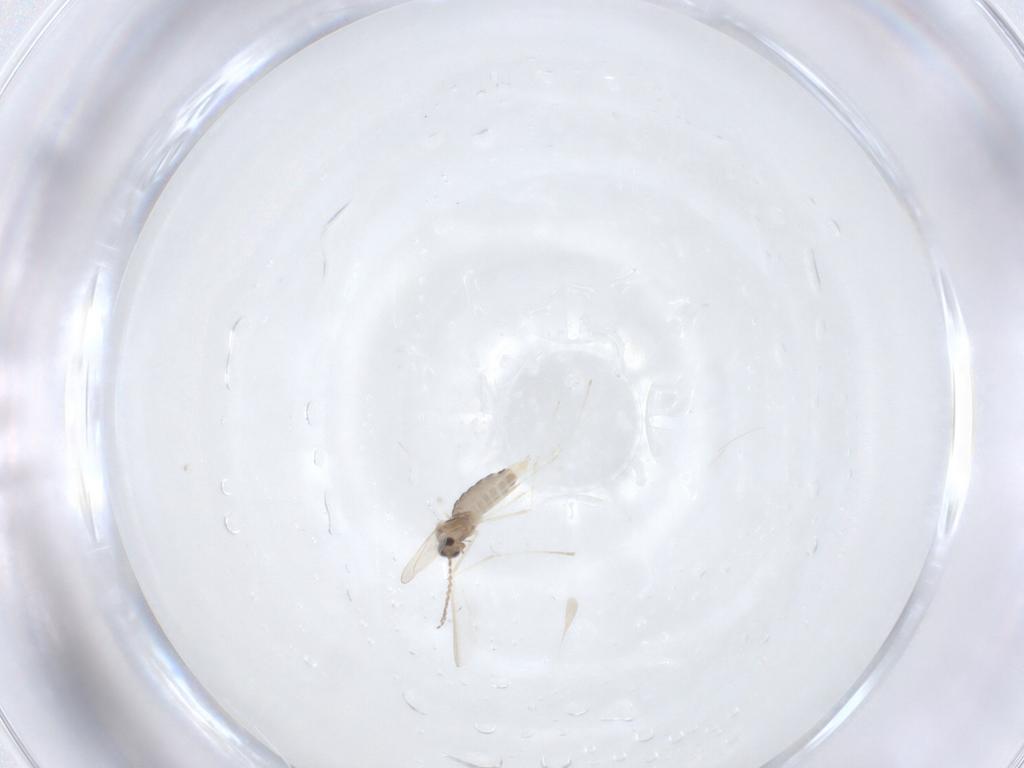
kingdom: Animalia
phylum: Arthropoda
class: Insecta
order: Diptera
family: Cecidomyiidae
